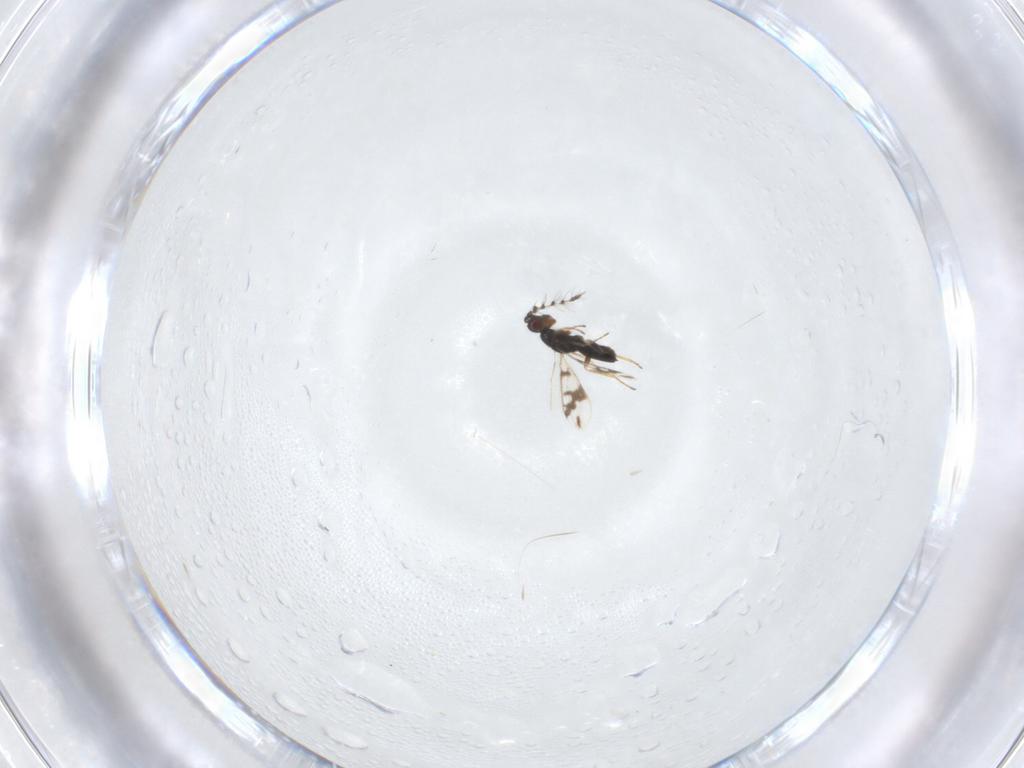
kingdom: Animalia
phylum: Arthropoda
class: Insecta
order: Hymenoptera
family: Eulophidae
